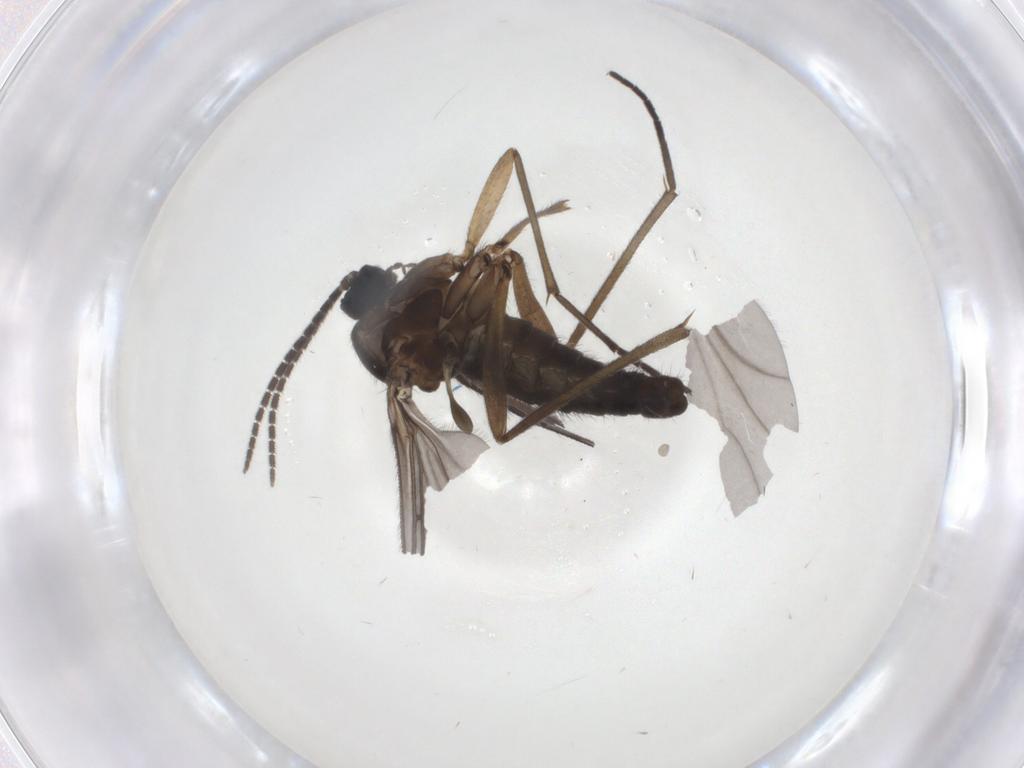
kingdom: Animalia
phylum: Arthropoda
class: Insecta
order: Diptera
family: Sciaridae
